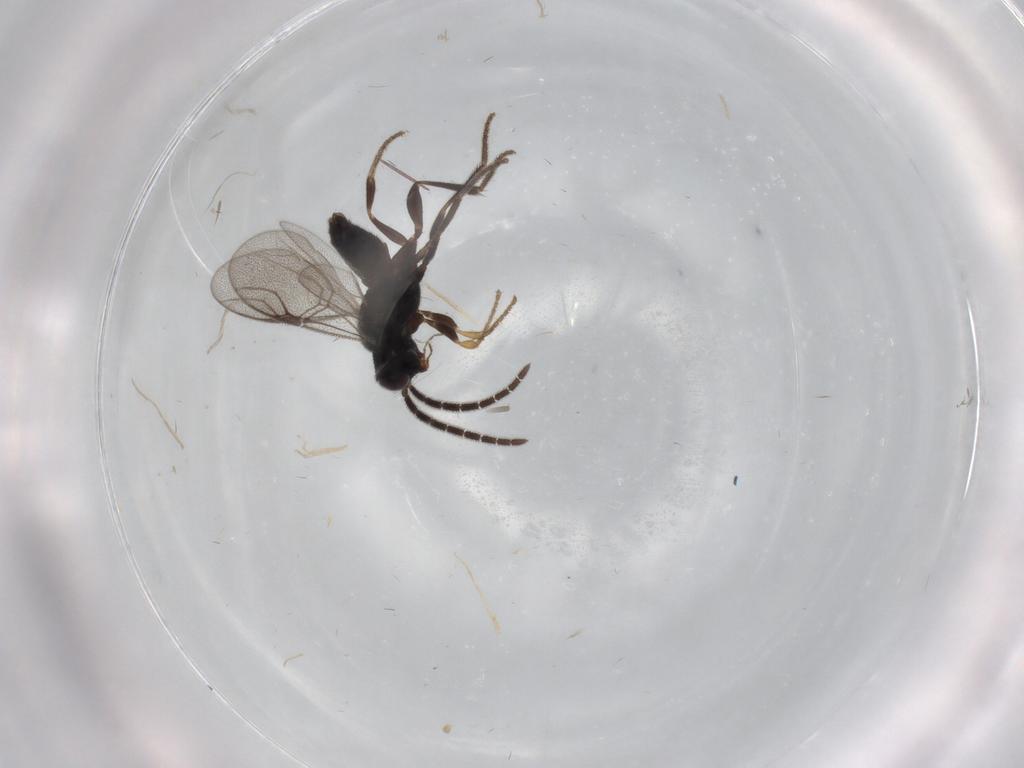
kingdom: Animalia
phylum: Arthropoda
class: Insecta
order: Hymenoptera
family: Dryinidae
